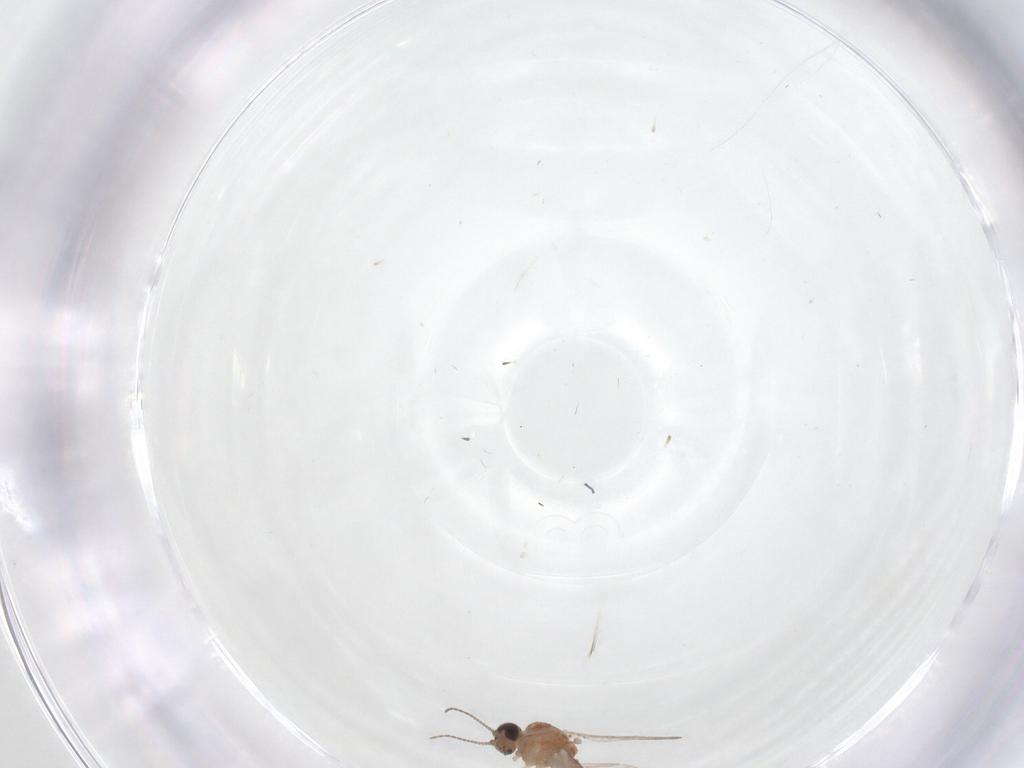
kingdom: Animalia
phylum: Arthropoda
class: Insecta
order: Diptera
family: Ceratopogonidae
